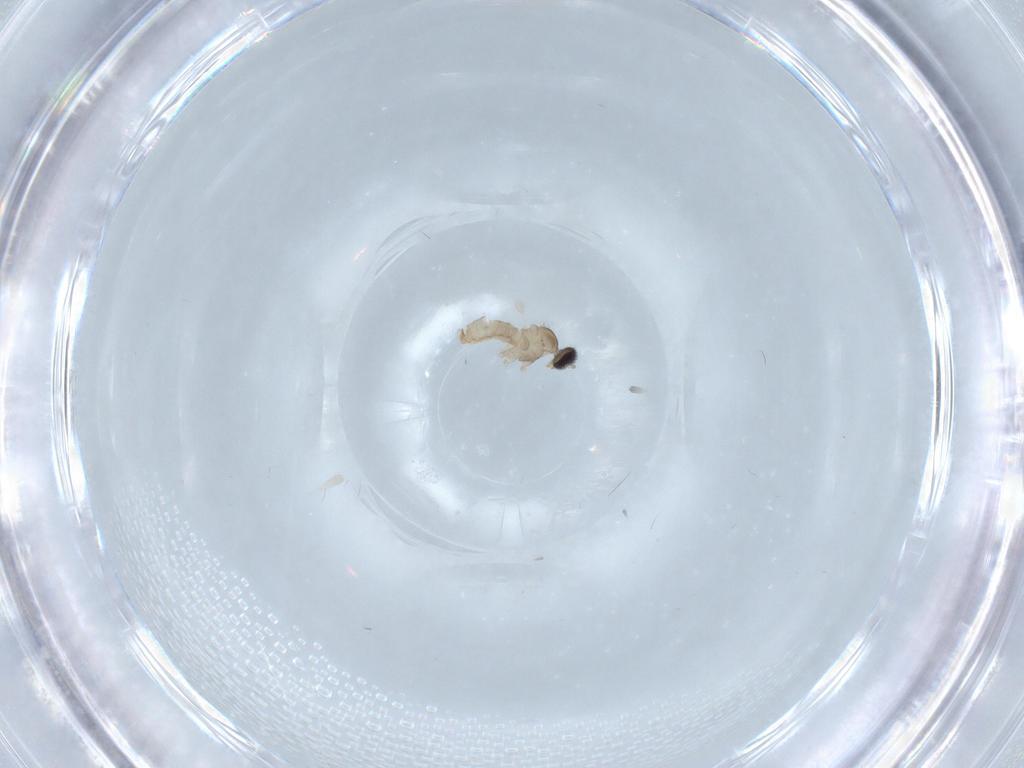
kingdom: Animalia
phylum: Arthropoda
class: Insecta
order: Diptera
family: Cecidomyiidae
